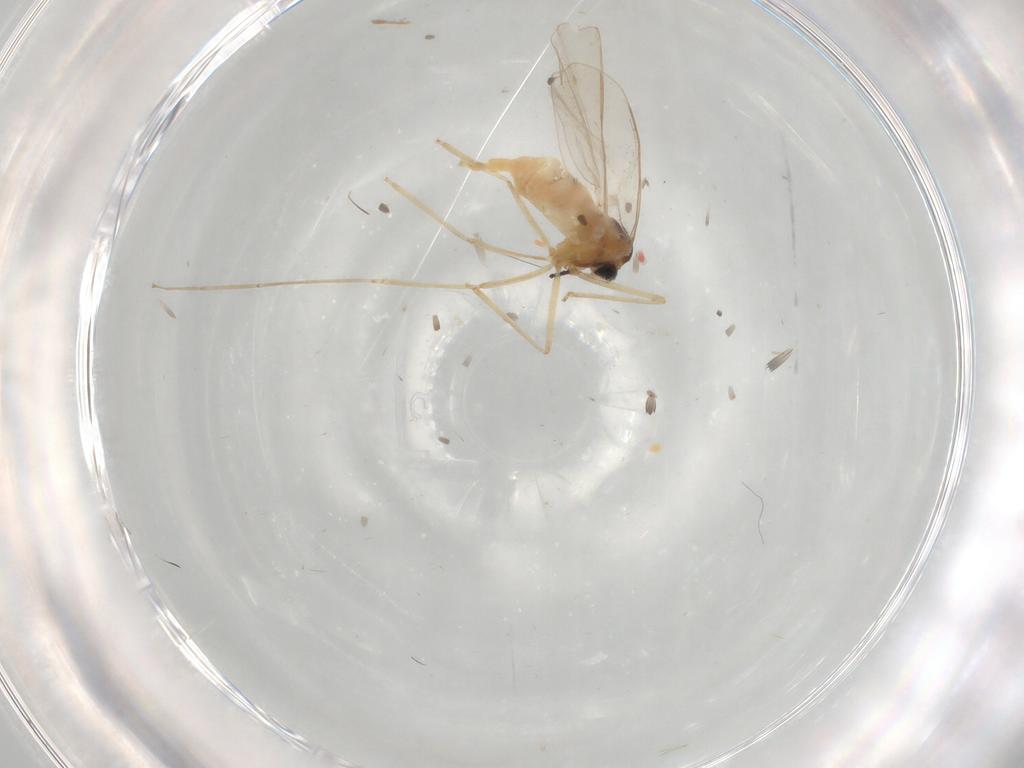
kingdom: Animalia
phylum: Arthropoda
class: Insecta
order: Diptera
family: Cecidomyiidae
